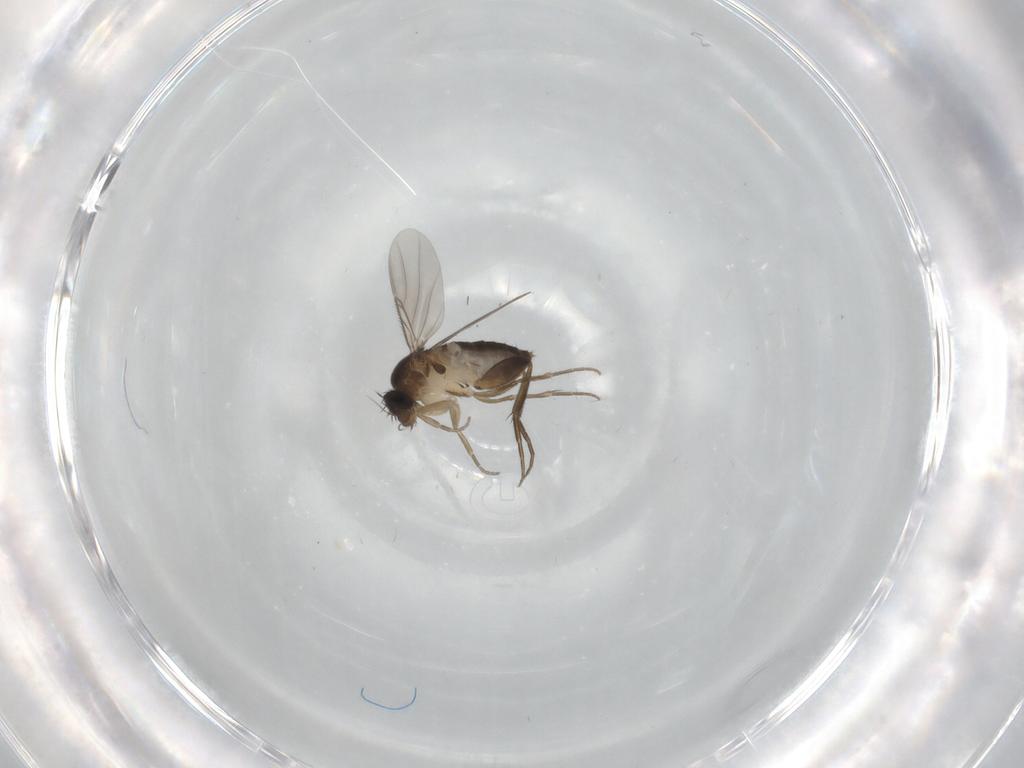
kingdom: Animalia
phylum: Arthropoda
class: Insecta
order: Diptera
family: Phoridae
